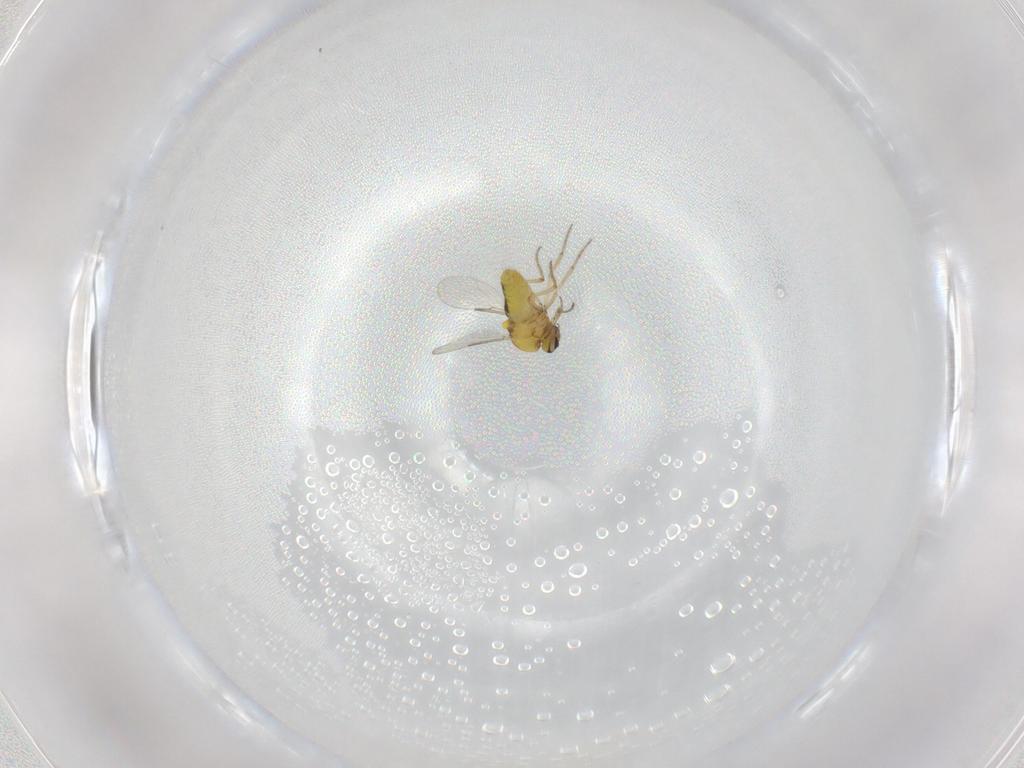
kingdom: Animalia
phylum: Arthropoda
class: Insecta
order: Diptera
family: Ceratopogonidae
